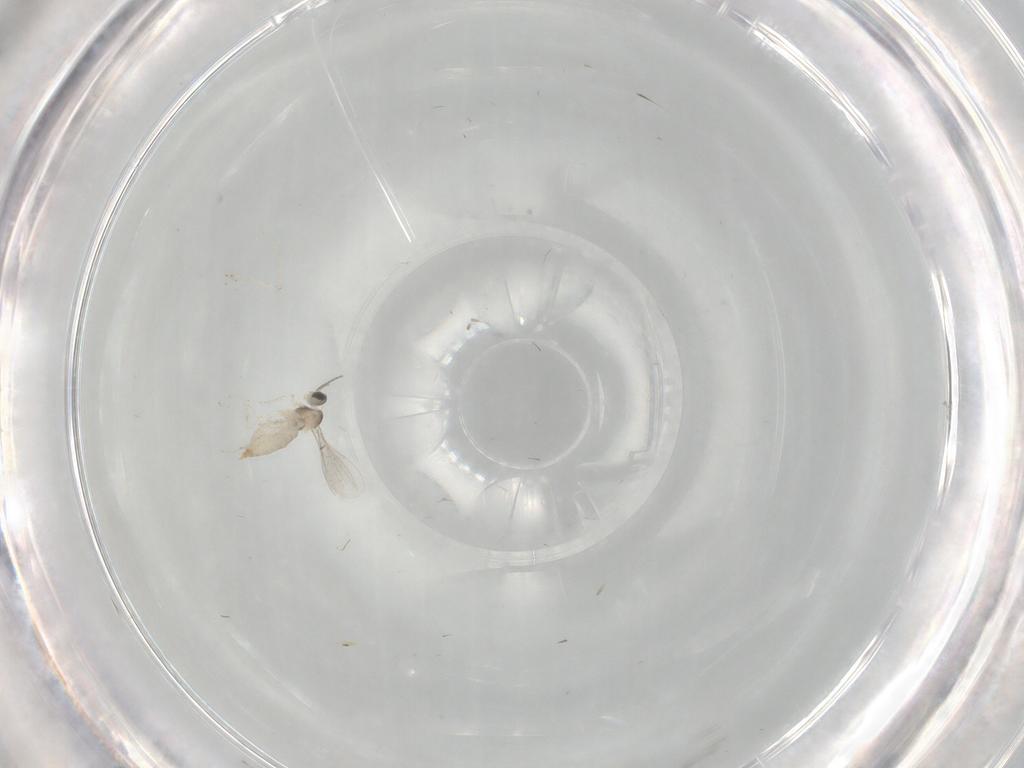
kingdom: Animalia
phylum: Arthropoda
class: Insecta
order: Diptera
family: Cecidomyiidae
